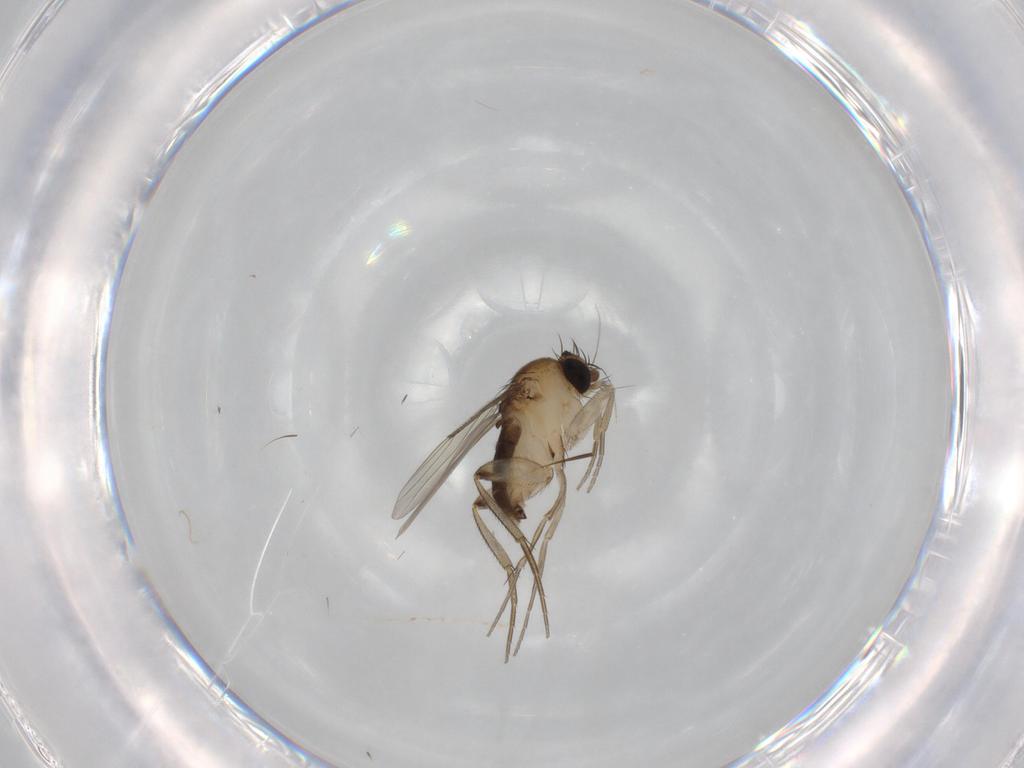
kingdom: Animalia
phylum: Arthropoda
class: Insecta
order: Diptera
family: Phoridae
